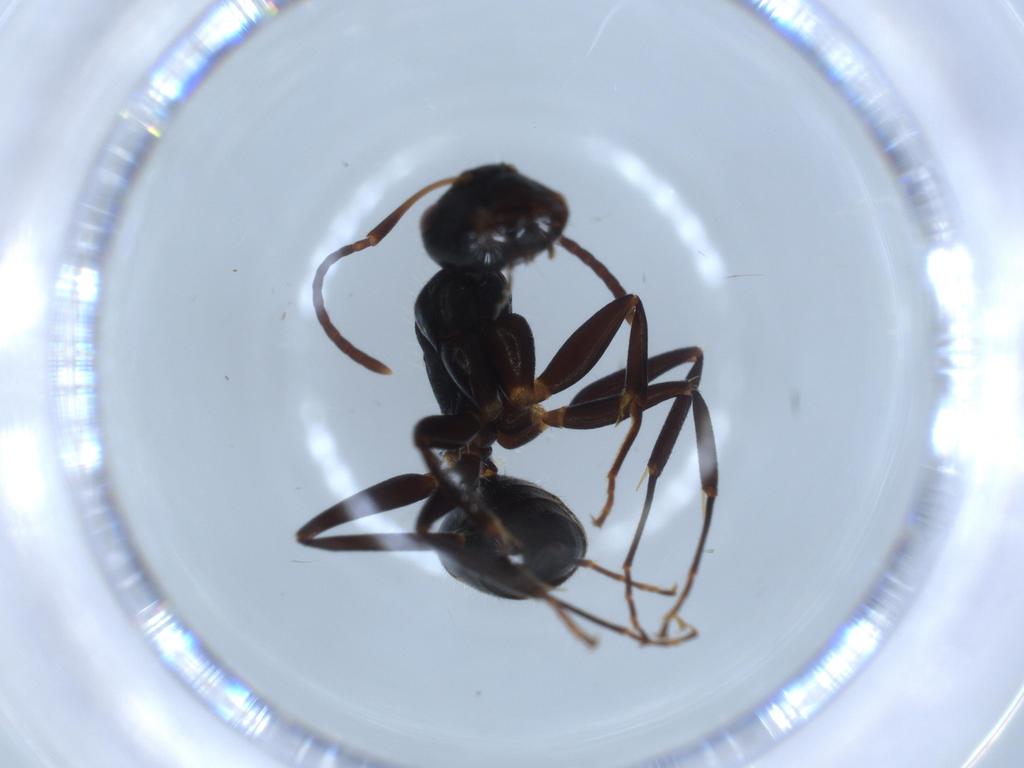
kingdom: Animalia
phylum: Arthropoda
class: Insecta
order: Hymenoptera
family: Formicidae
